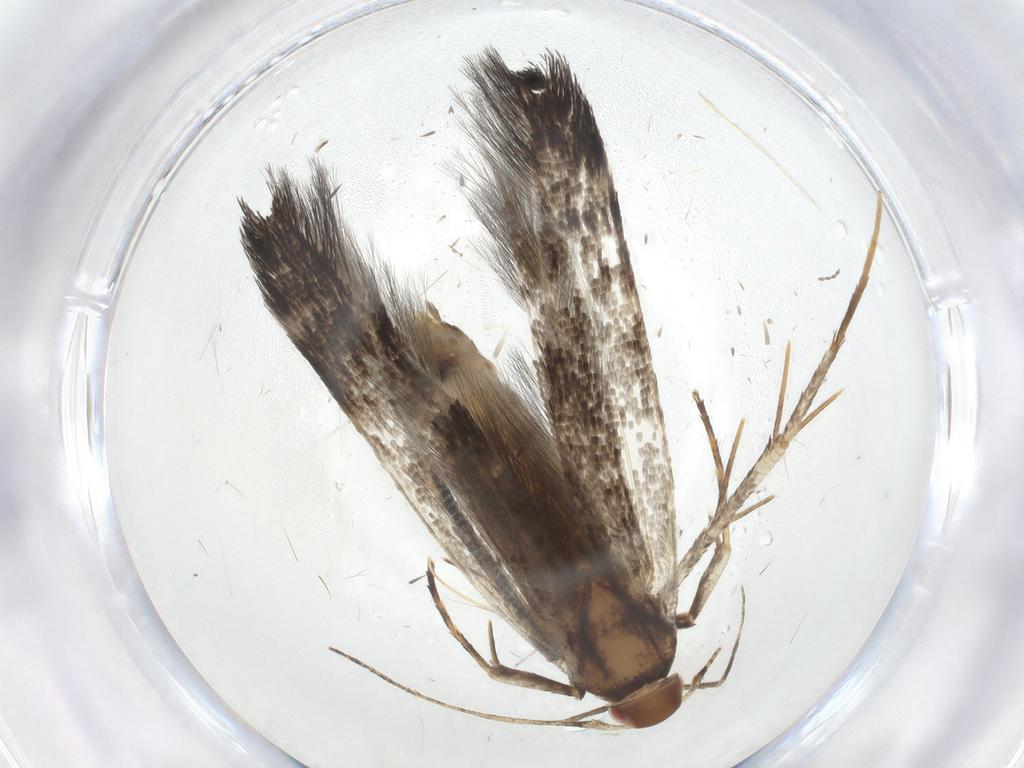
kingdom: Animalia
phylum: Arthropoda
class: Insecta
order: Lepidoptera
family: Cosmopterigidae
